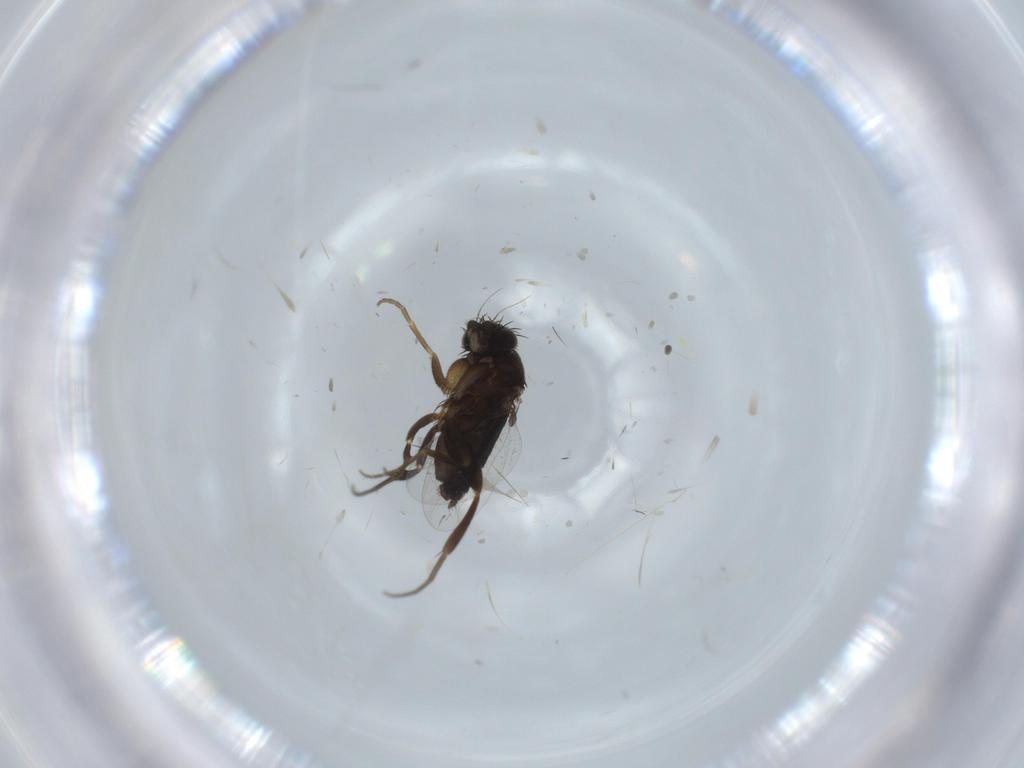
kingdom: Animalia
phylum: Arthropoda
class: Insecta
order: Diptera
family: Phoridae
